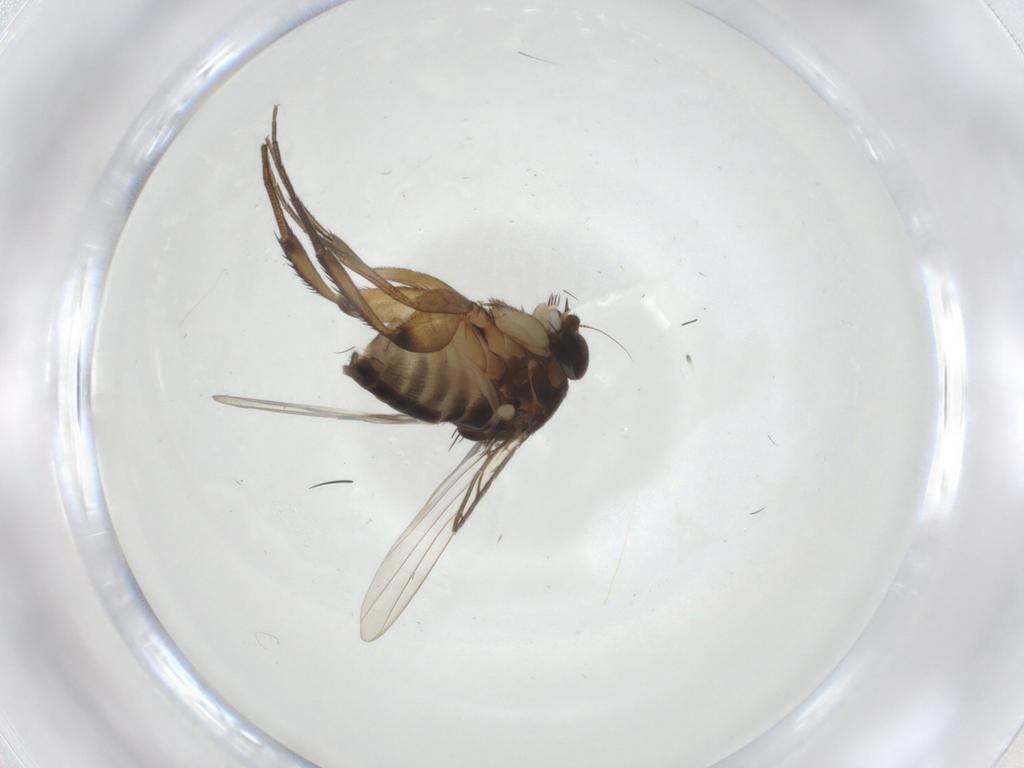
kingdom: Animalia
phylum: Arthropoda
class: Insecta
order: Diptera
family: Phoridae
